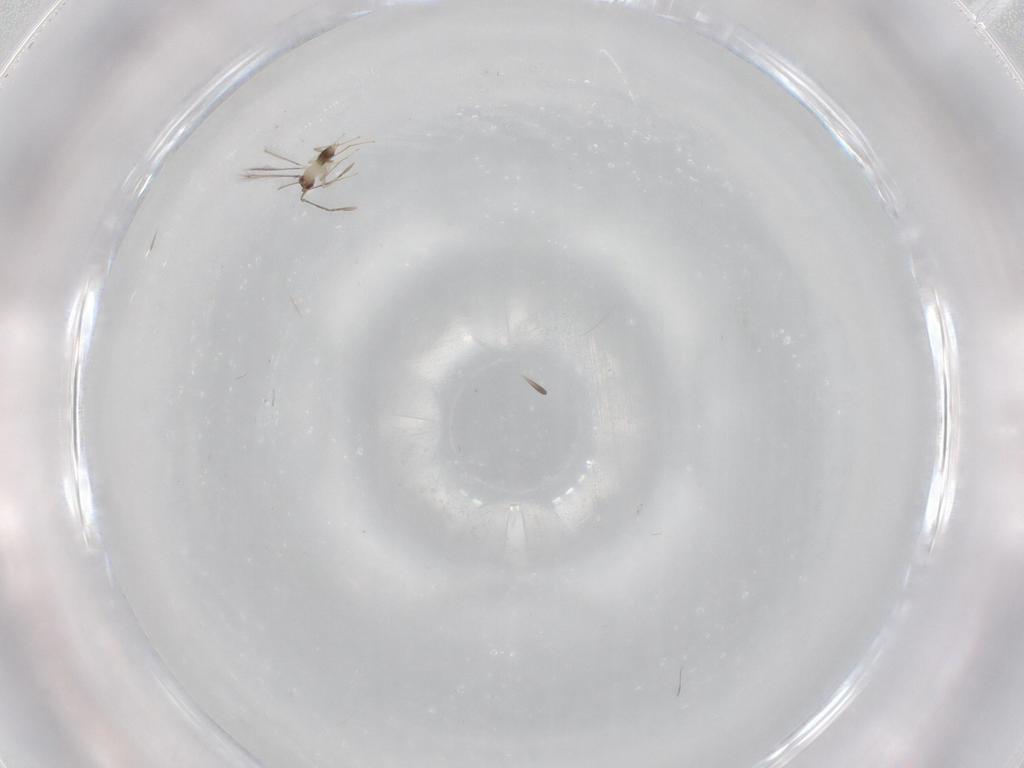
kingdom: Animalia
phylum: Arthropoda
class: Insecta
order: Hymenoptera
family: Mymaridae
